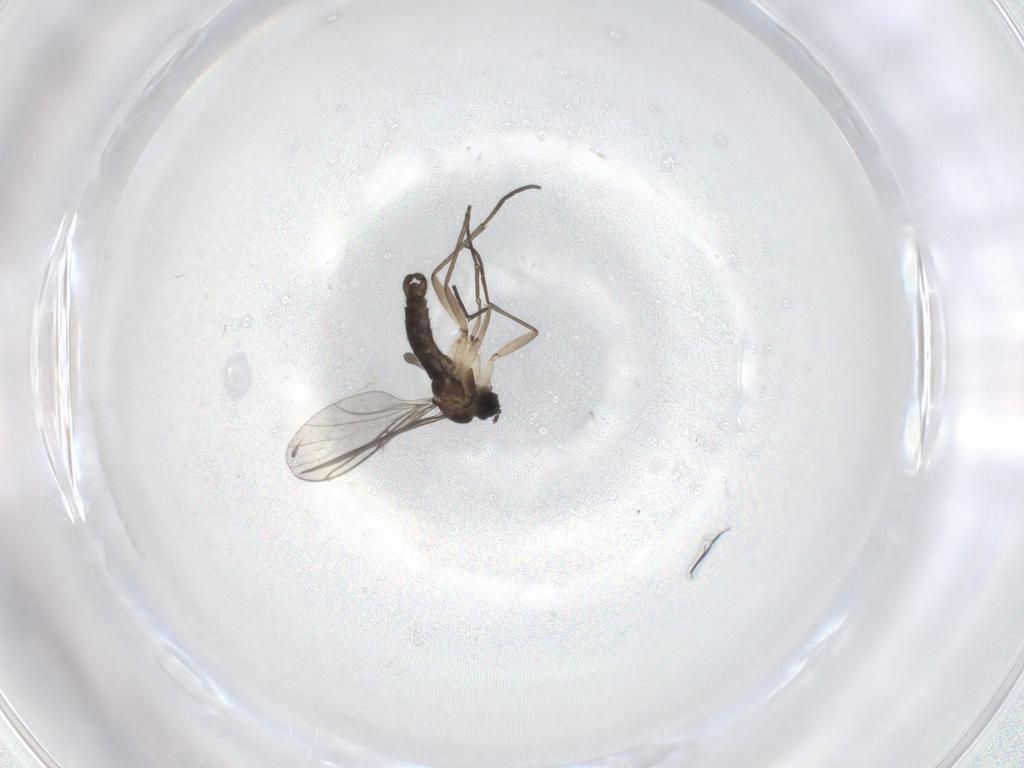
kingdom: Animalia
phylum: Arthropoda
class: Insecta
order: Diptera
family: Sciaridae
